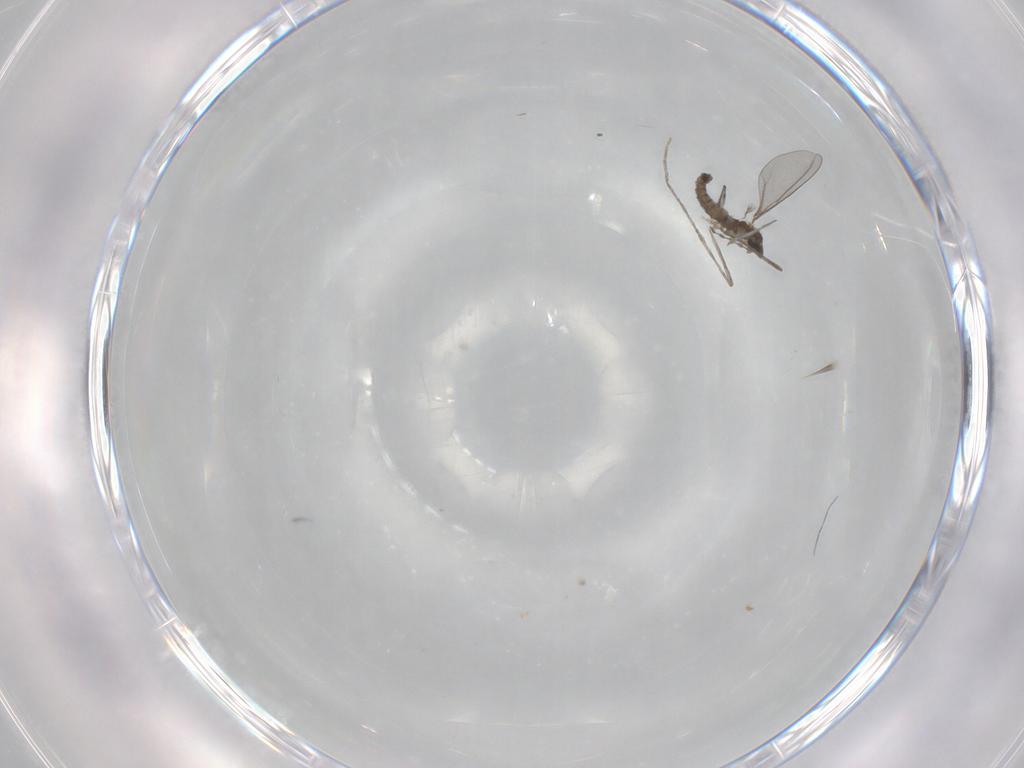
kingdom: Animalia
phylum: Arthropoda
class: Insecta
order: Diptera
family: Cecidomyiidae
